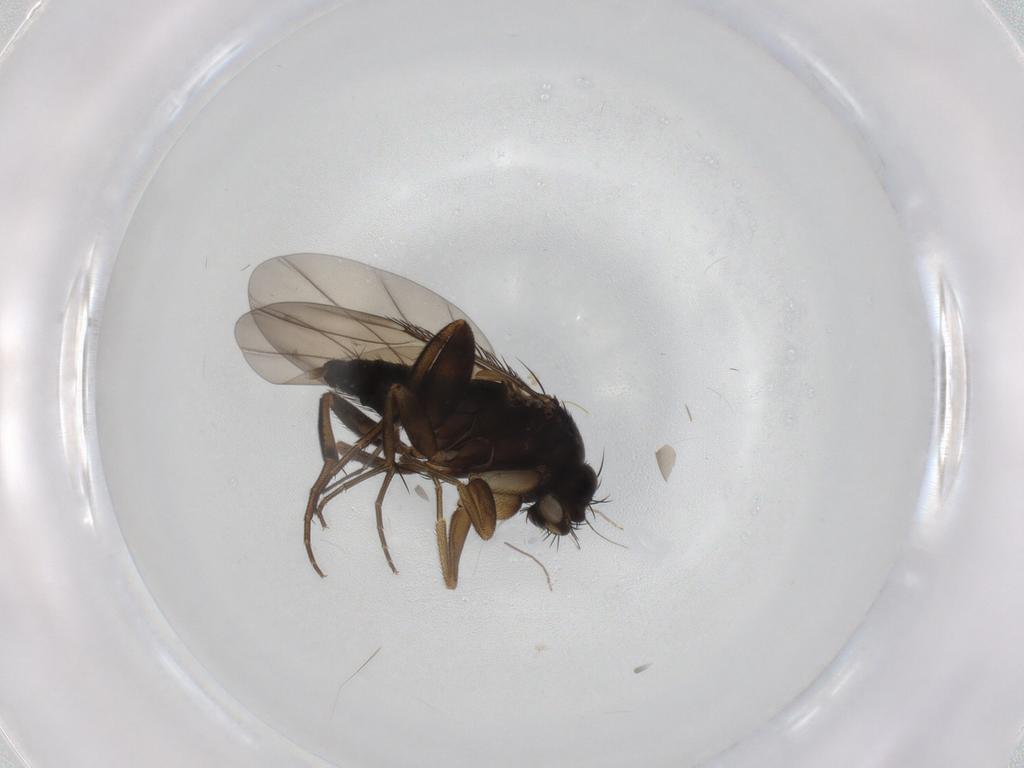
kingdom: Animalia
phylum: Arthropoda
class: Insecta
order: Diptera
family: Phoridae
